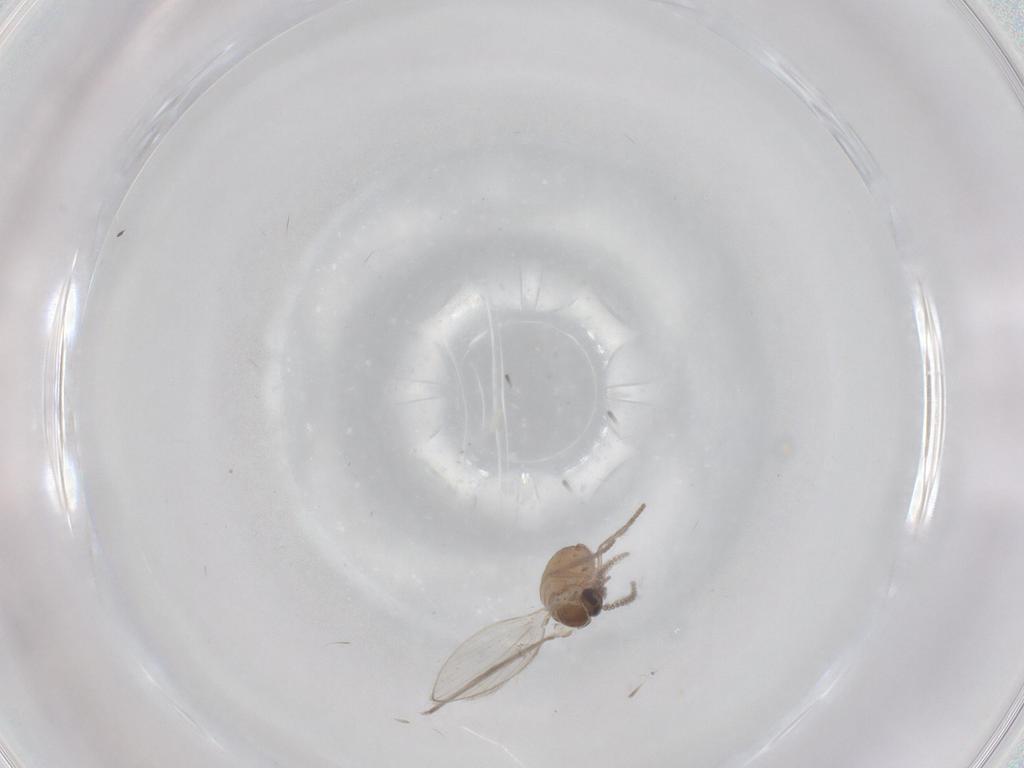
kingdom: Animalia
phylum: Arthropoda
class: Insecta
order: Diptera
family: Psychodidae
